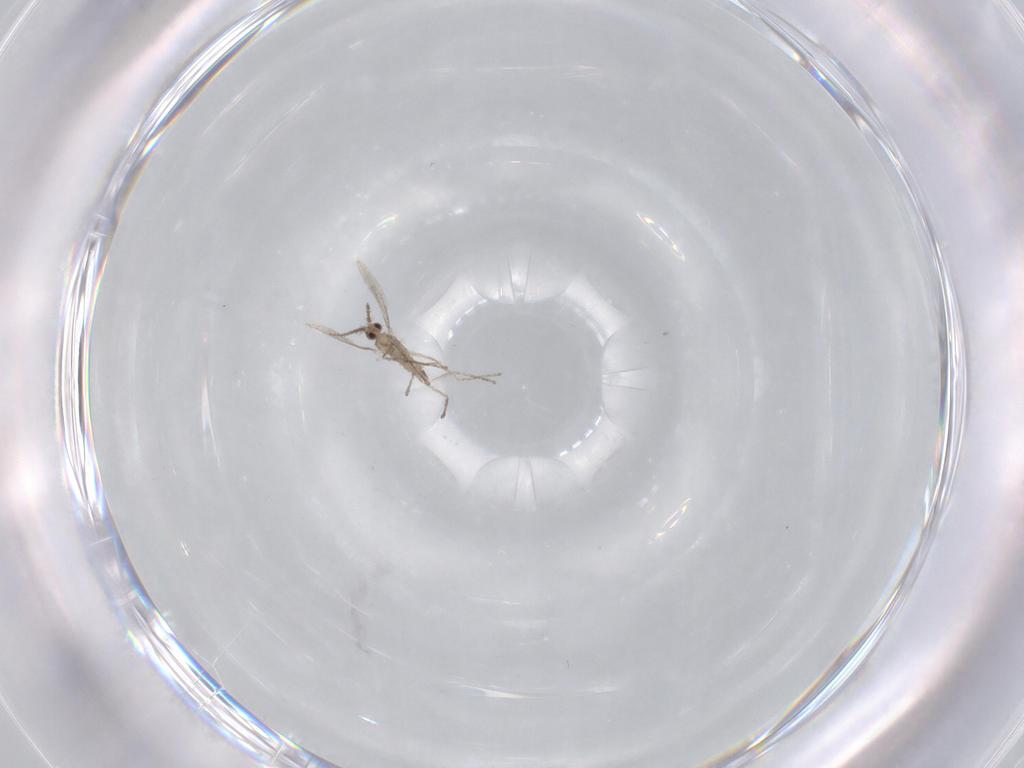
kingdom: Animalia
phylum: Arthropoda
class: Insecta
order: Diptera
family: Cecidomyiidae
